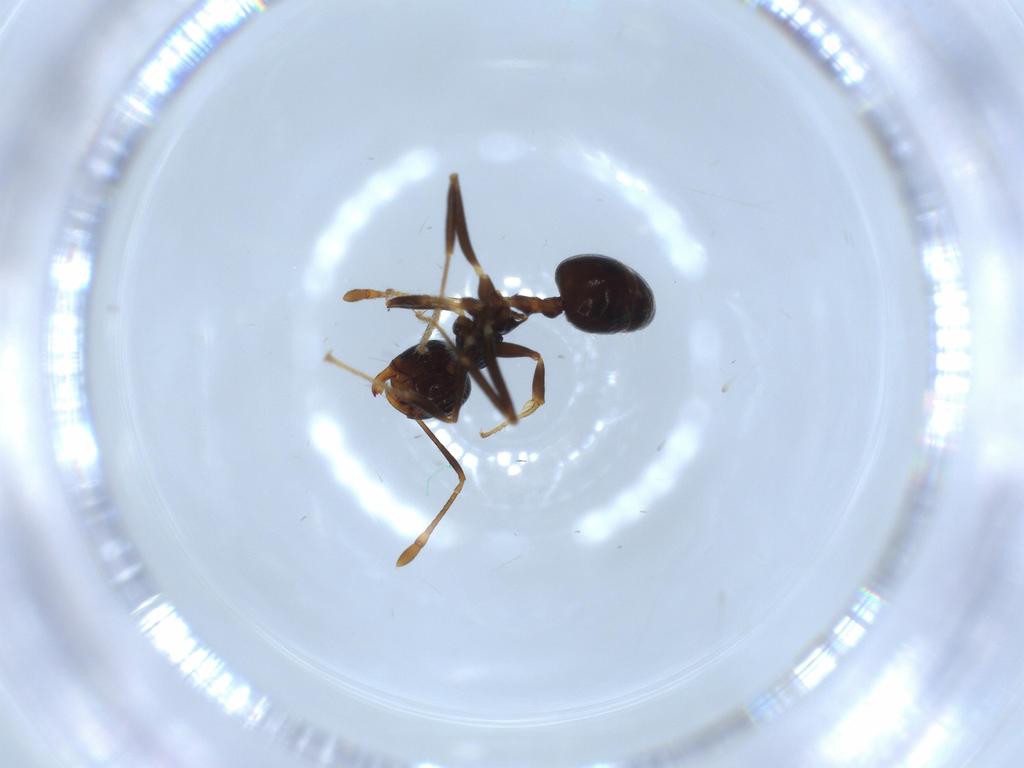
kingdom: Animalia
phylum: Arthropoda
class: Insecta
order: Hymenoptera
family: Formicidae
